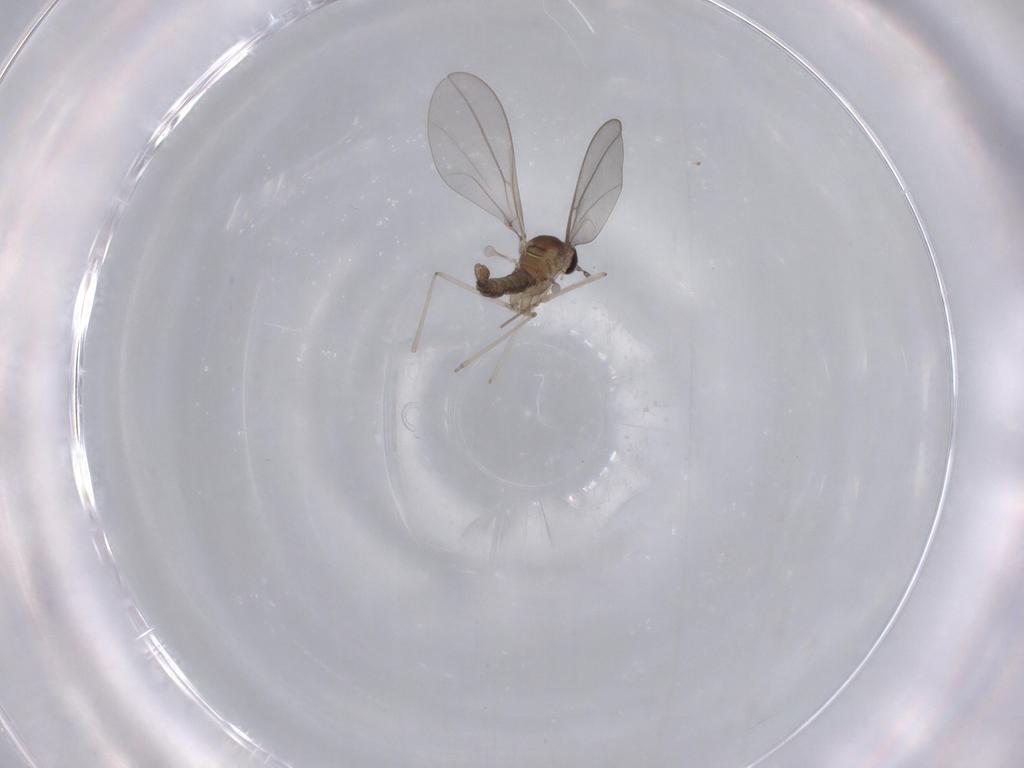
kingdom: Animalia
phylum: Arthropoda
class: Insecta
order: Diptera
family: Cecidomyiidae
